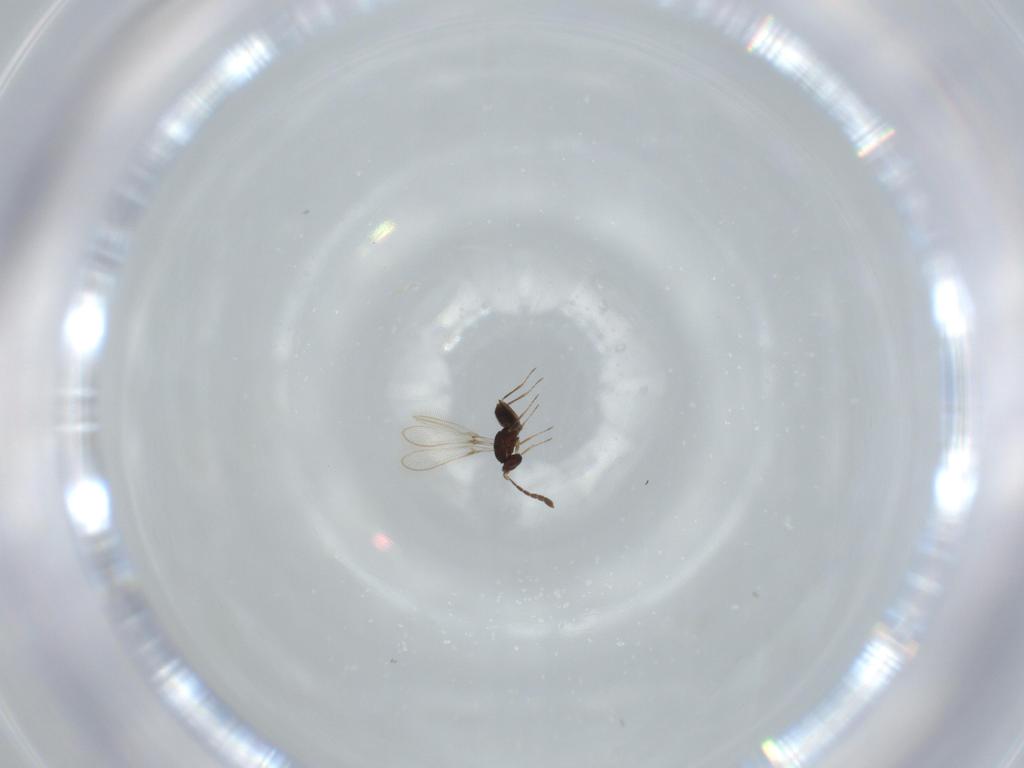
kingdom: Animalia
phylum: Arthropoda
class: Insecta
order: Hymenoptera
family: Mymaridae
